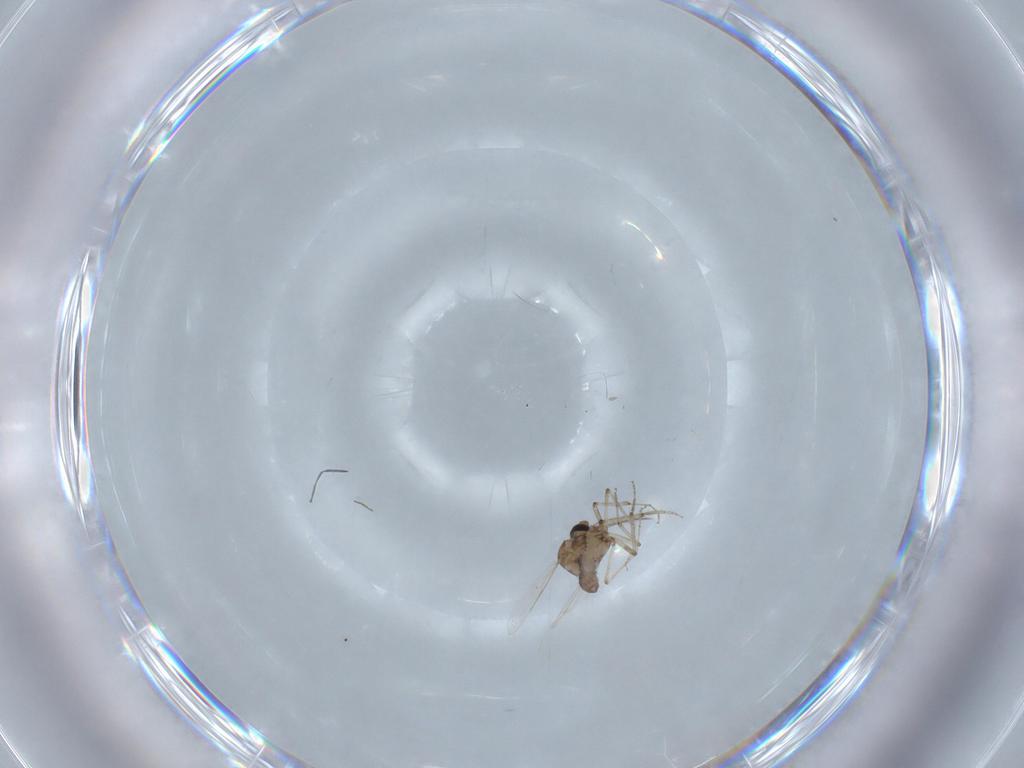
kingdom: Animalia
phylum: Arthropoda
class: Insecta
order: Diptera
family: Ceratopogonidae
